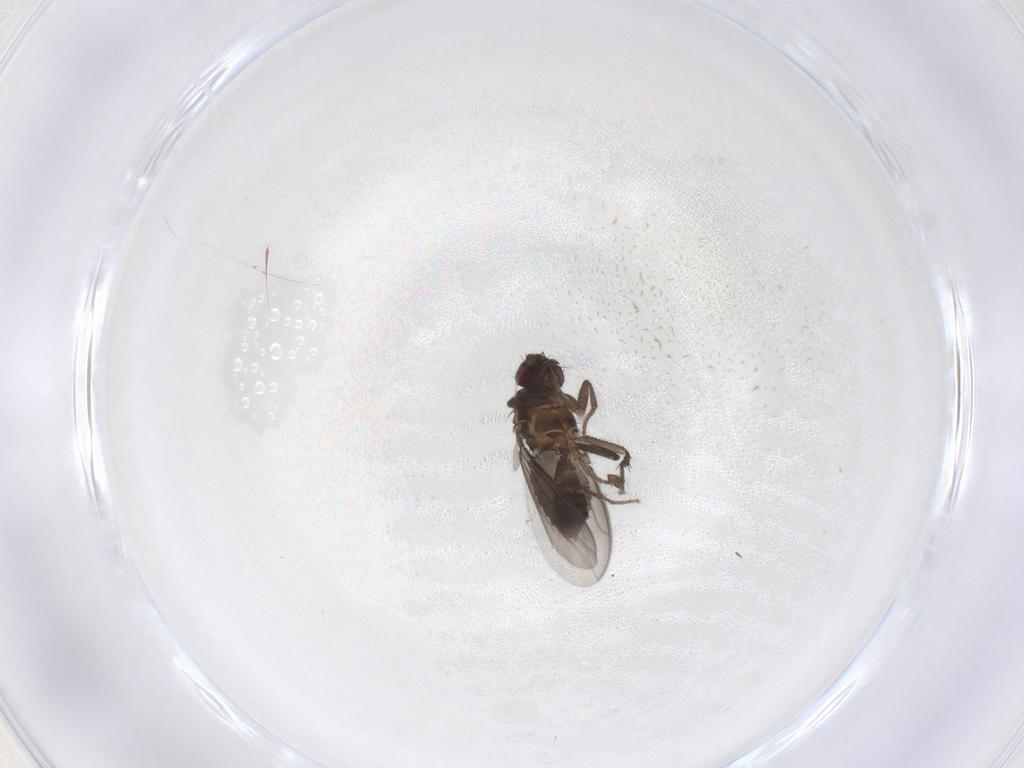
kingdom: Animalia
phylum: Arthropoda
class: Insecta
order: Diptera
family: Sphaeroceridae
